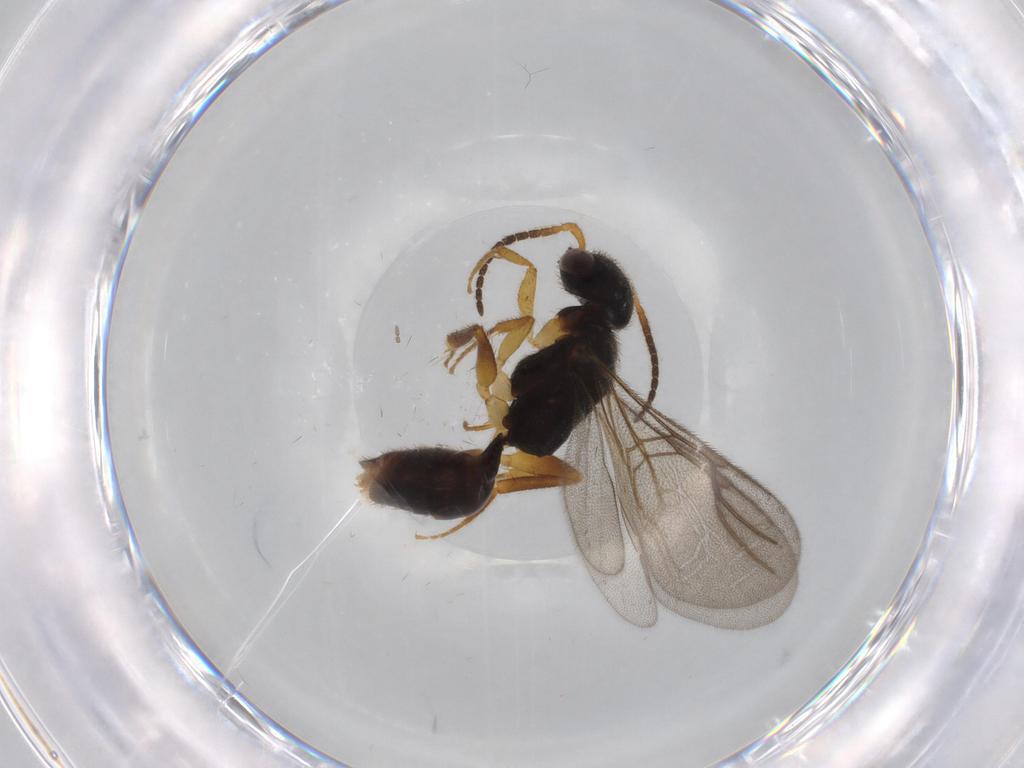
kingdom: Animalia
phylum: Arthropoda
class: Insecta
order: Hymenoptera
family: Bethylidae
